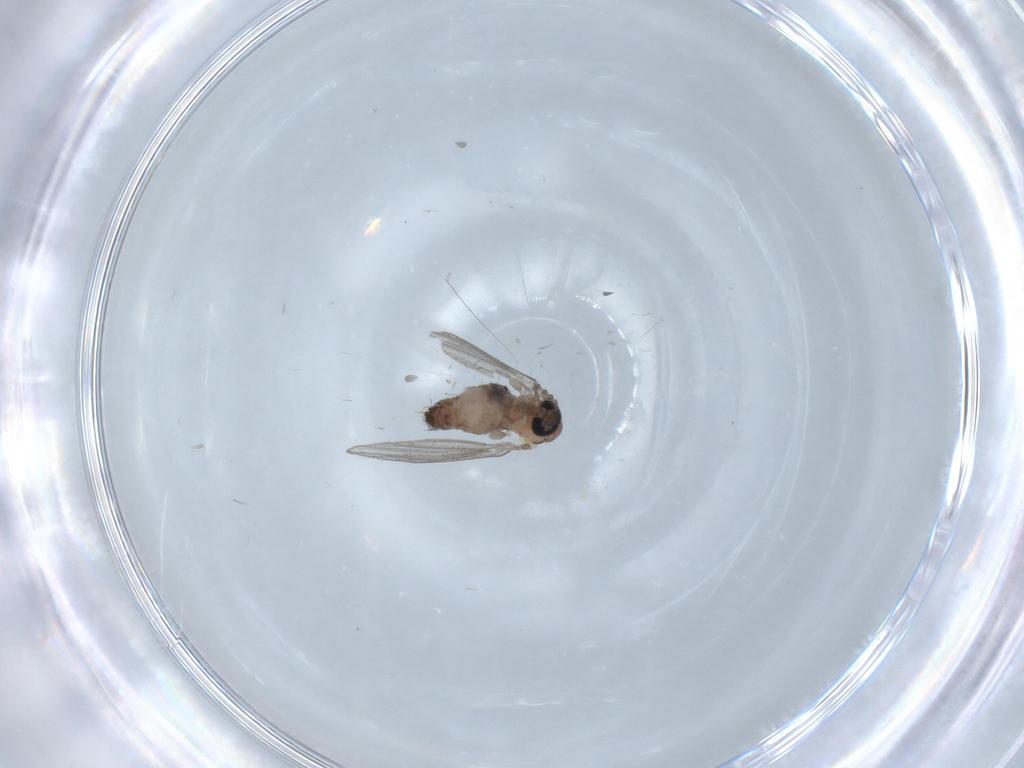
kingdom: Animalia
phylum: Arthropoda
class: Insecta
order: Diptera
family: Psychodidae
